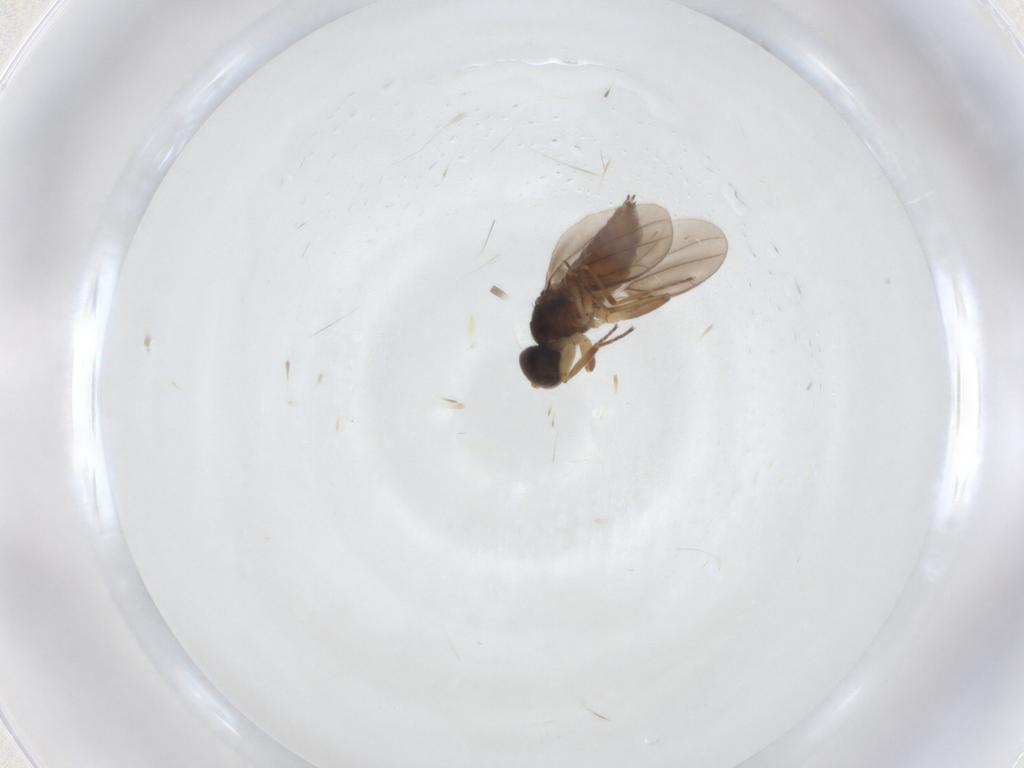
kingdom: Animalia
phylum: Arthropoda
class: Insecta
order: Diptera
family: Hybotidae
